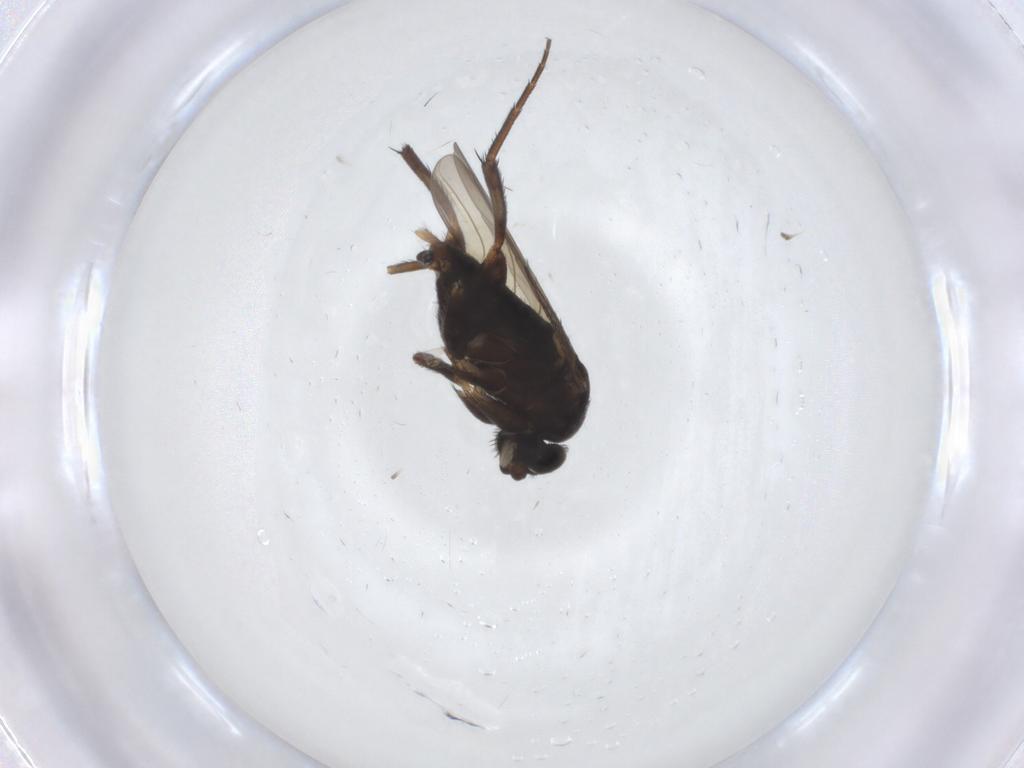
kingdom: Animalia
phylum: Arthropoda
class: Insecta
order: Diptera
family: Phoridae
